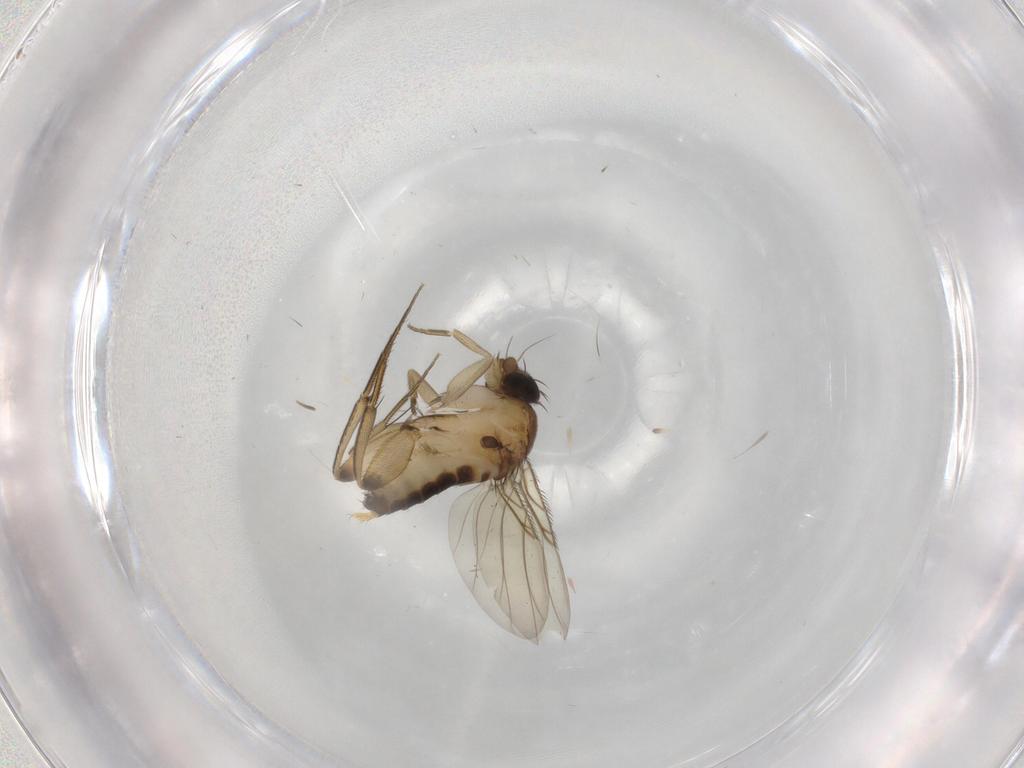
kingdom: Animalia
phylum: Arthropoda
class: Insecta
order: Diptera
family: Phoridae
